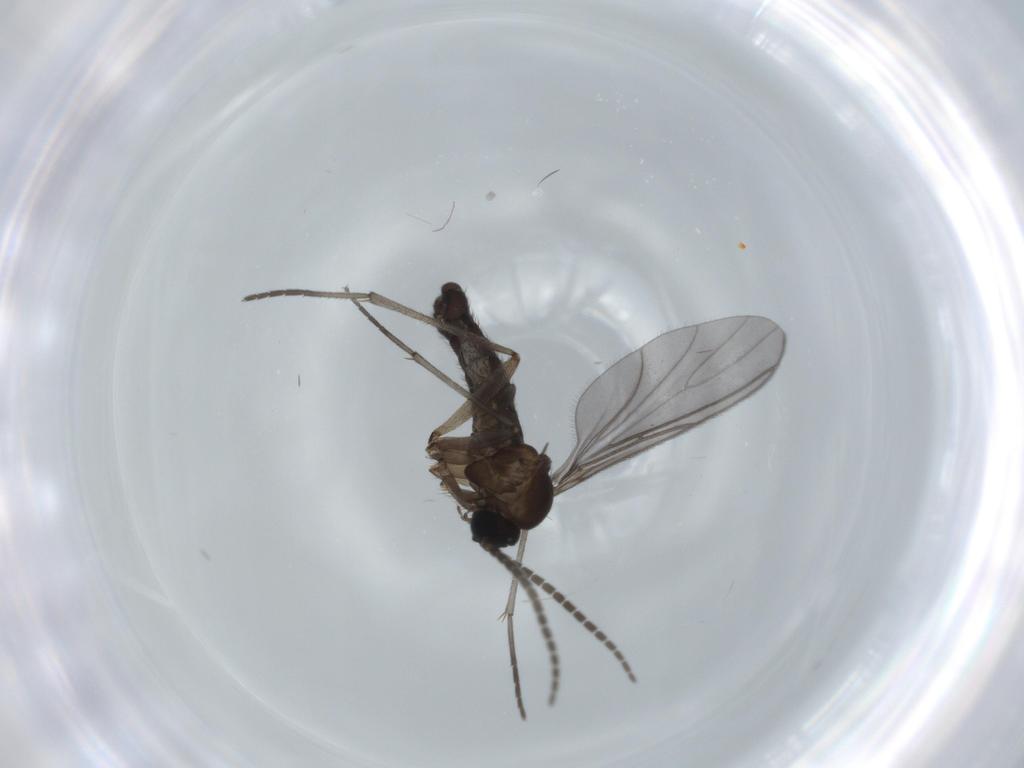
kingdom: Animalia
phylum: Arthropoda
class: Insecta
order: Diptera
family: Sciaridae
